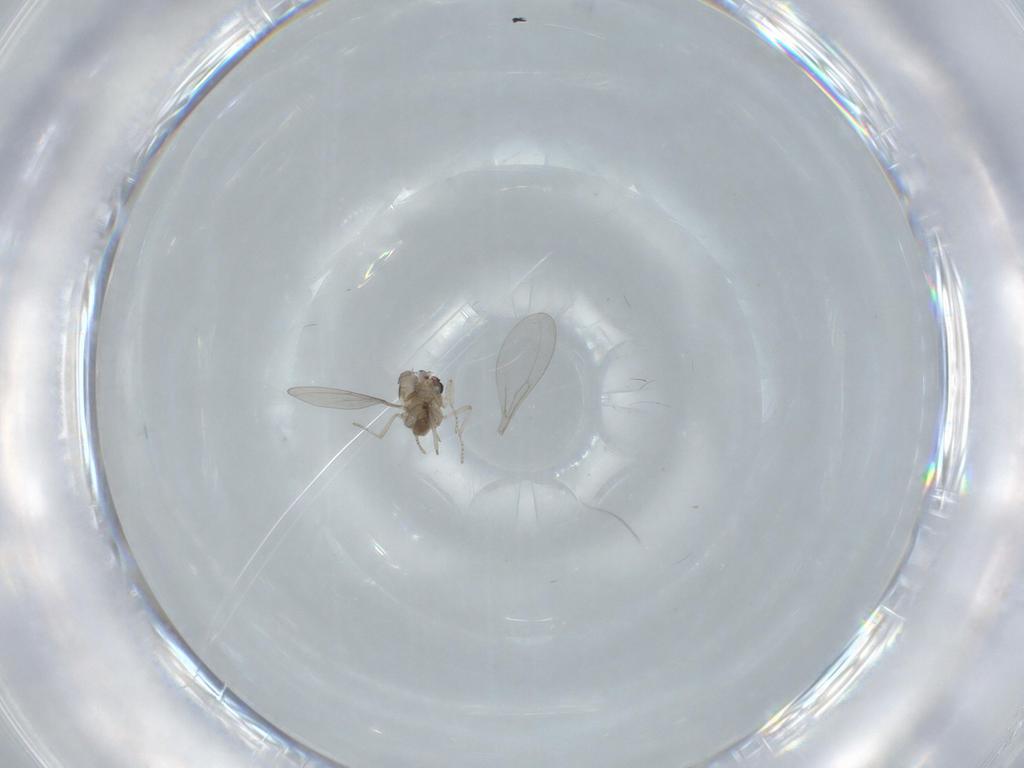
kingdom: Animalia
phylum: Arthropoda
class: Insecta
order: Diptera
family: Cecidomyiidae
